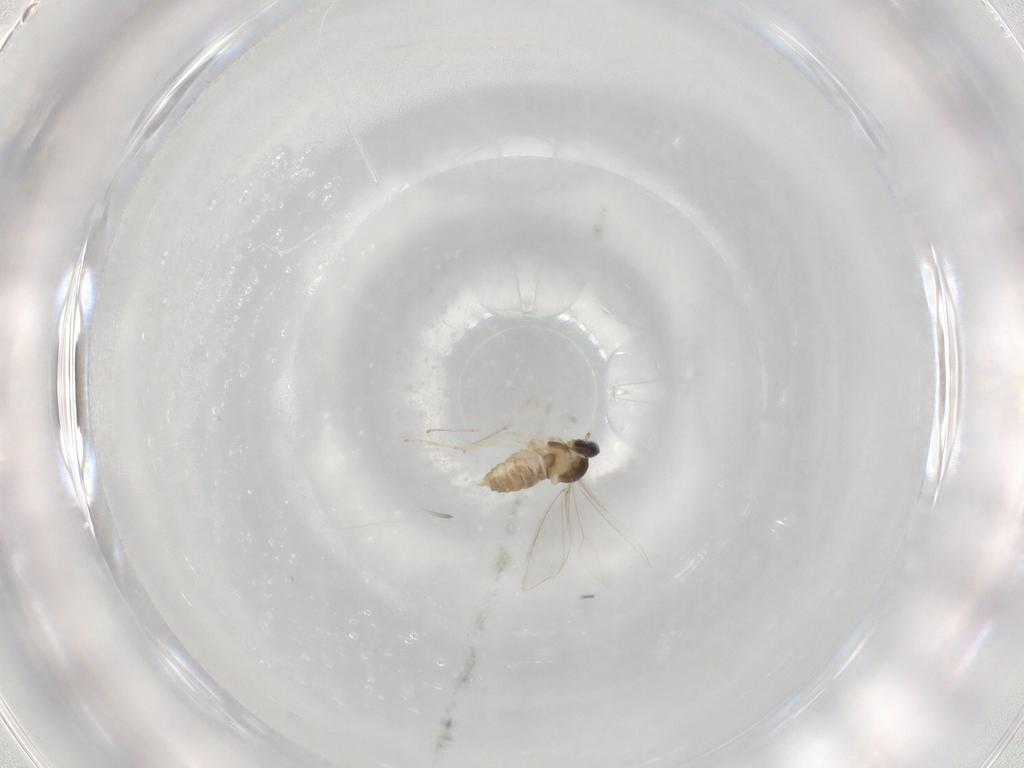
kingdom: Animalia
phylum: Arthropoda
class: Insecta
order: Diptera
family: Cecidomyiidae
